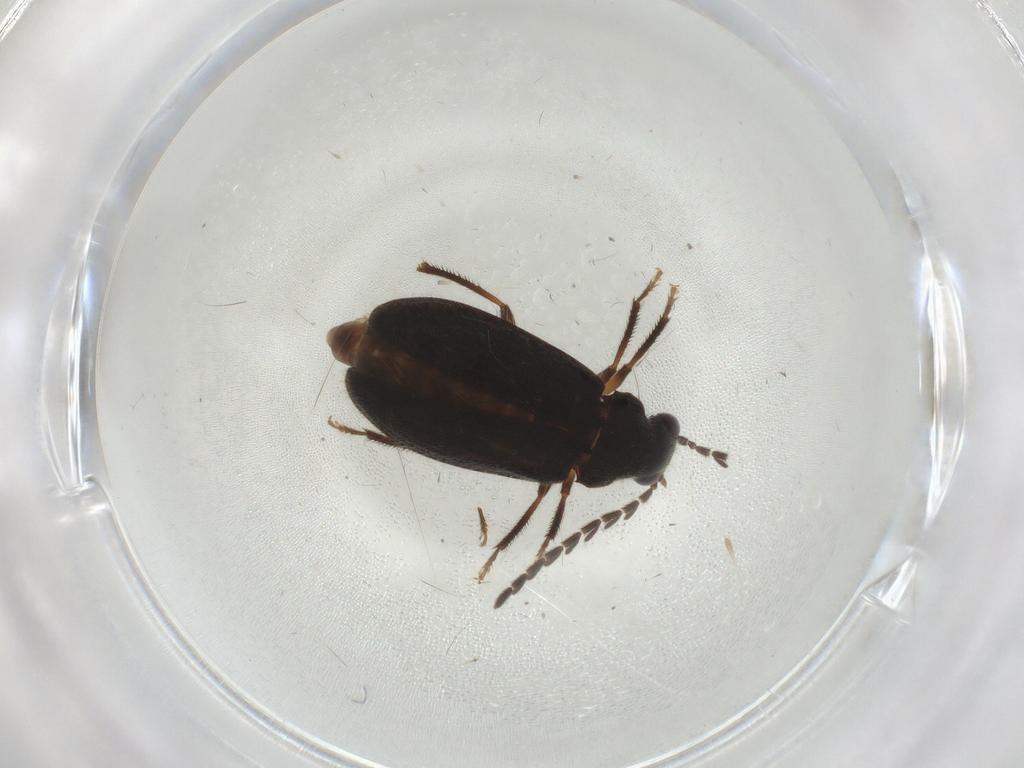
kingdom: Animalia
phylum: Arthropoda
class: Insecta
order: Coleoptera
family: Ptilodactylidae
